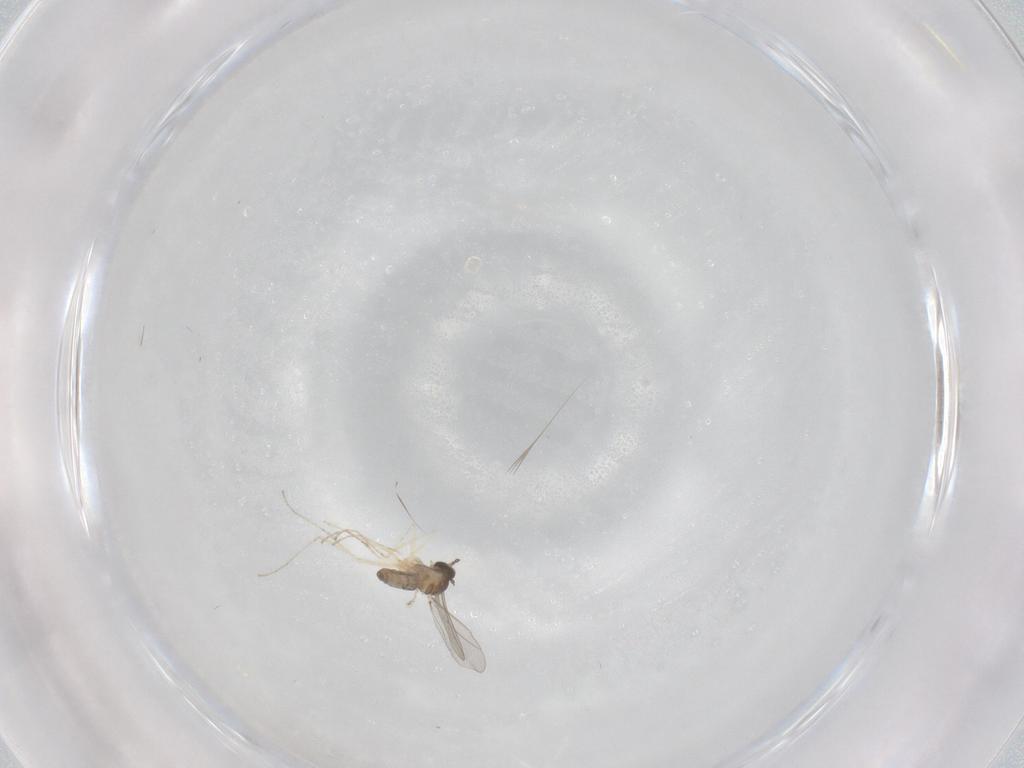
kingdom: Animalia
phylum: Arthropoda
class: Insecta
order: Diptera
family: Cecidomyiidae
